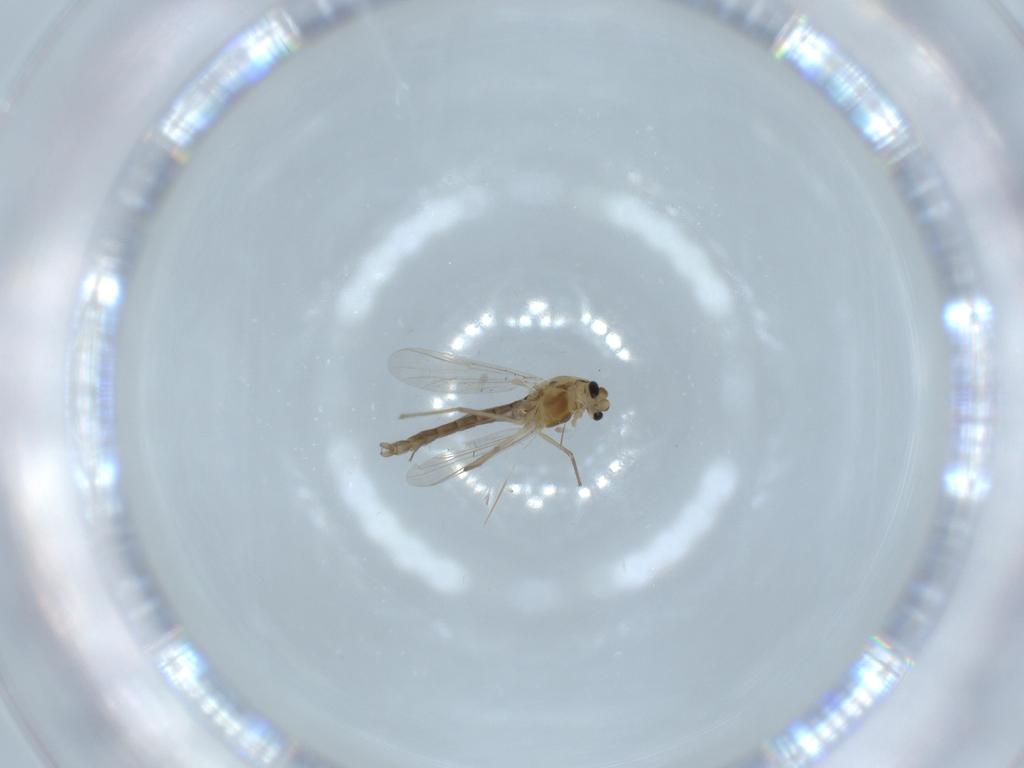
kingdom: Animalia
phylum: Arthropoda
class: Insecta
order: Diptera
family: Chironomidae
